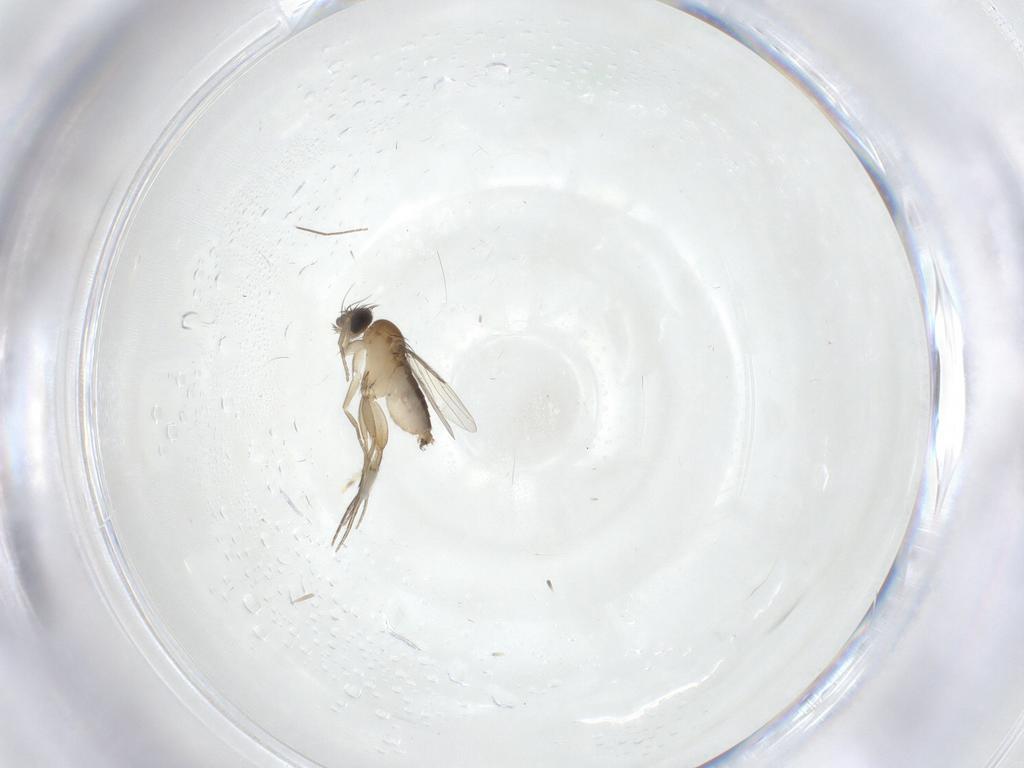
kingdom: Animalia
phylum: Arthropoda
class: Insecta
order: Diptera
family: Phoridae
